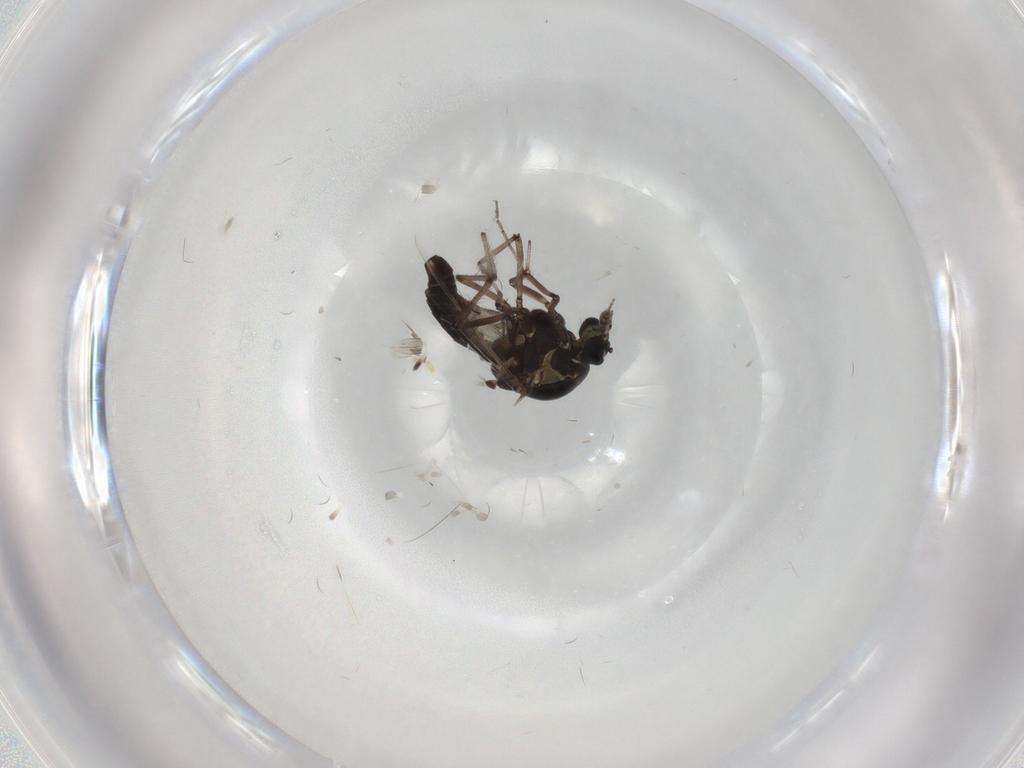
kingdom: Animalia
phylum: Arthropoda
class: Insecta
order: Diptera
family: Ceratopogonidae
